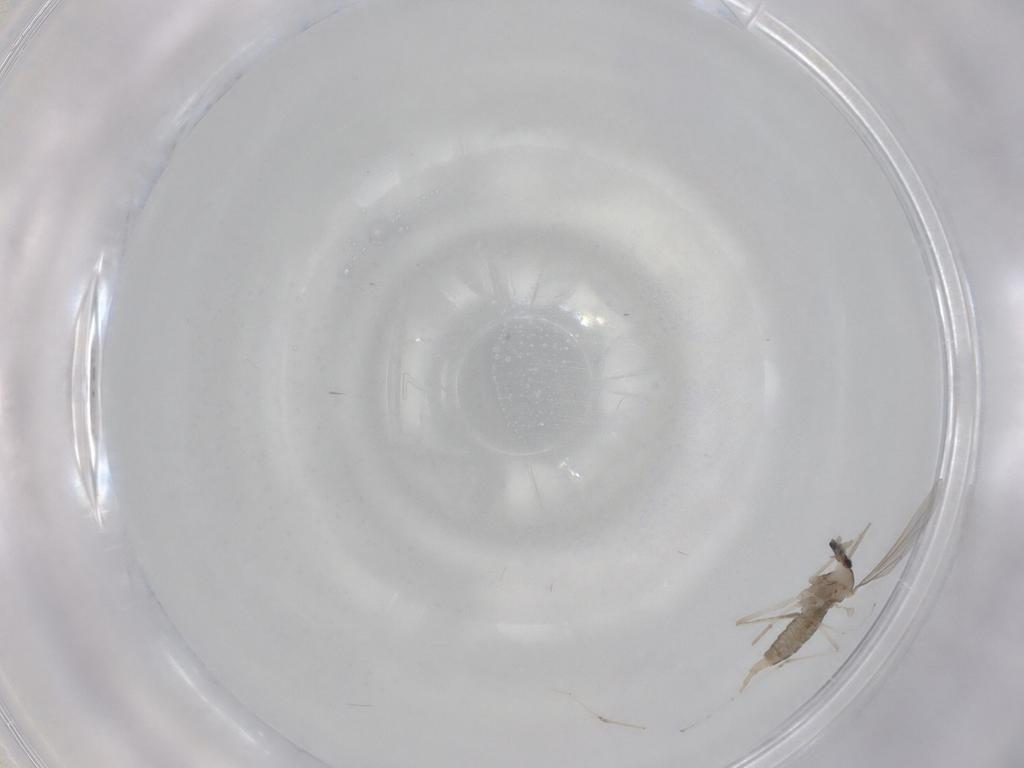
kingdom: Animalia
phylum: Arthropoda
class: Insecta
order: Diptera
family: Cecidomyiidae
